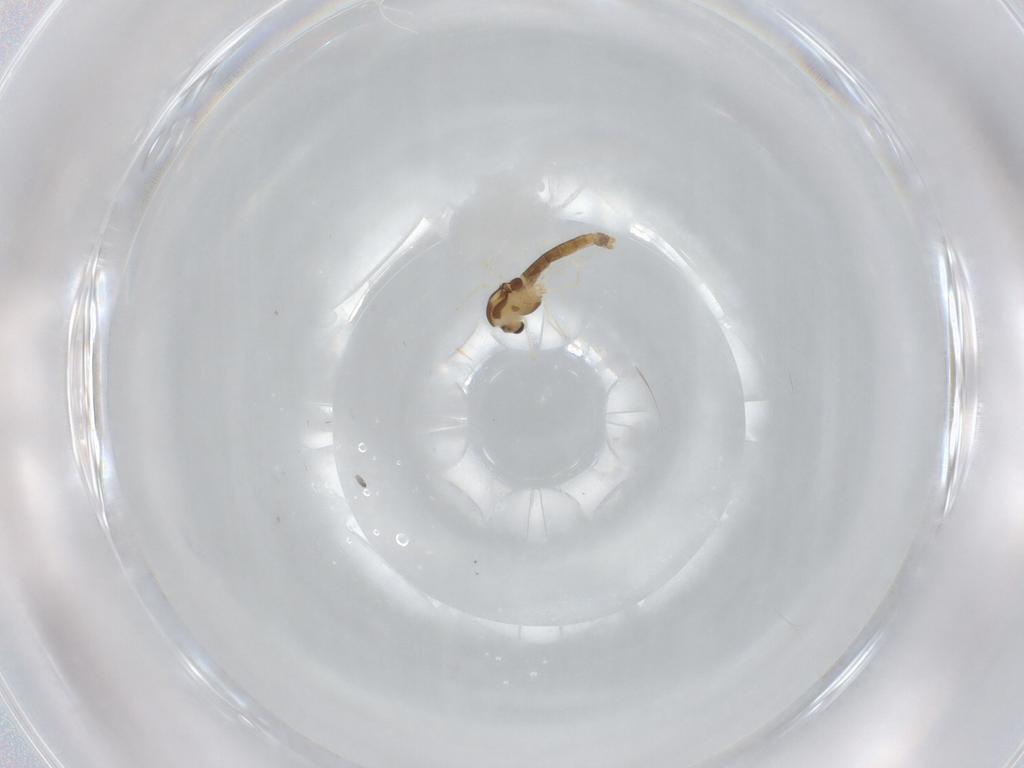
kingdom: Animalia
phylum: Arthropoda
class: Insecta
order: Diptera
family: Chironomidae
